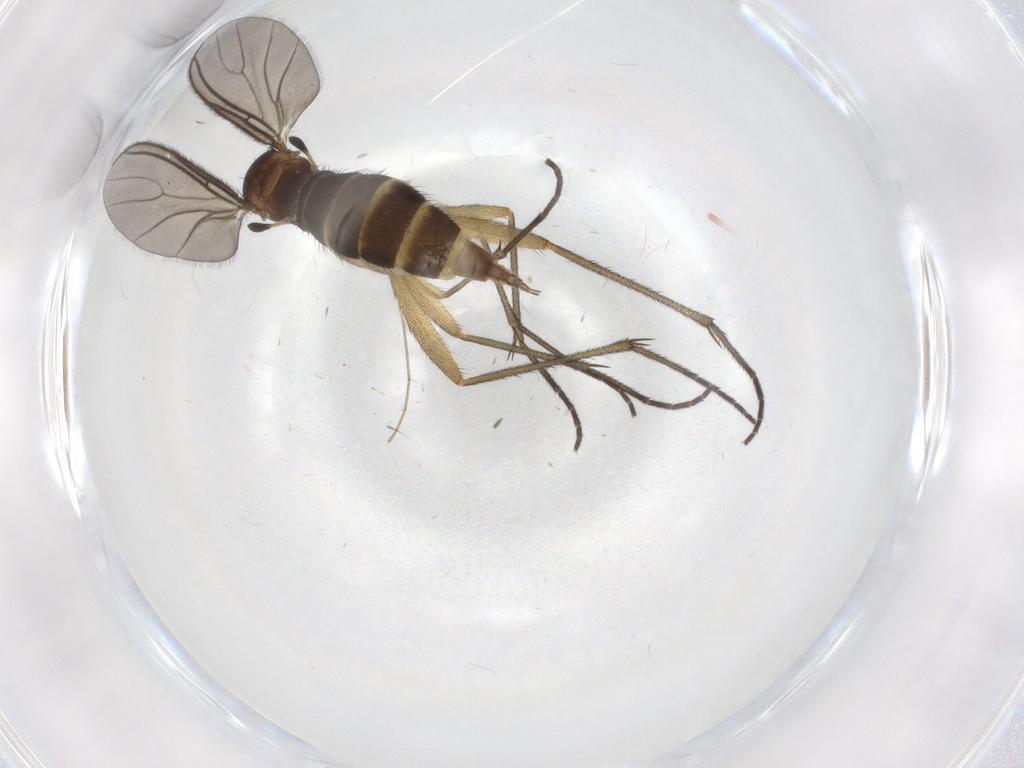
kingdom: Animalia
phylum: Arthropoda
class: Insecta
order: Diptera
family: Sciaridae
